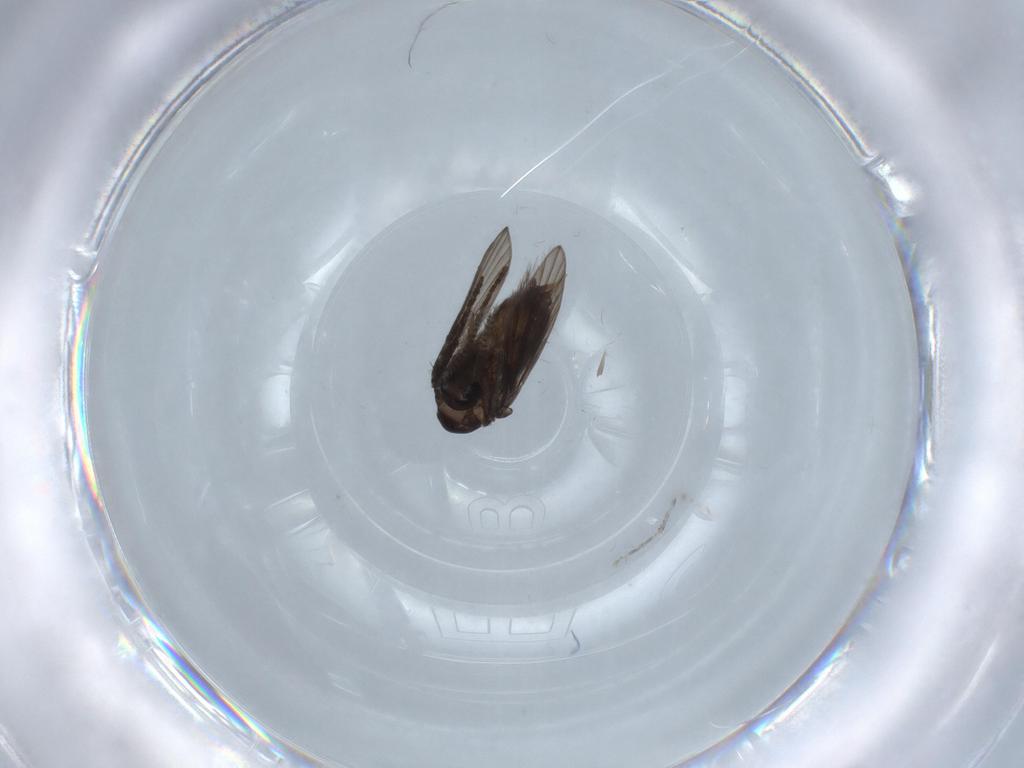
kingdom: Animalia
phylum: Arthropoda
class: Insecta
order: Diptera
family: Psychodidae
